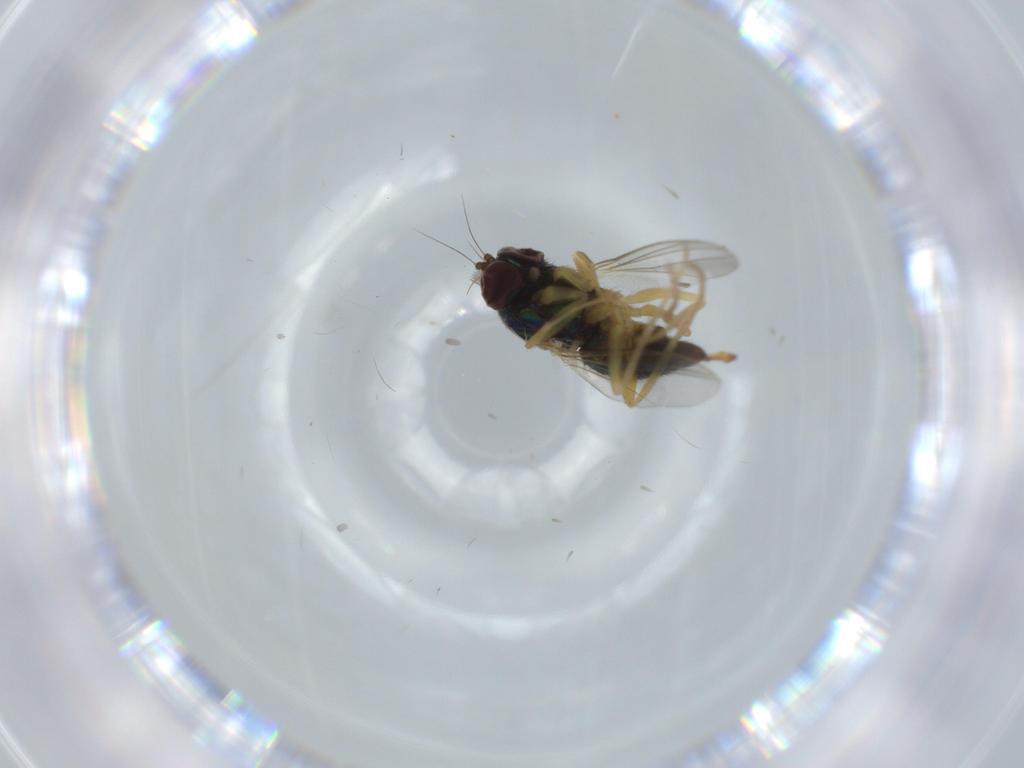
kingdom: Animalia
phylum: Arthropoda
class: Insecta
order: Diptera
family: Dolichopodidae
